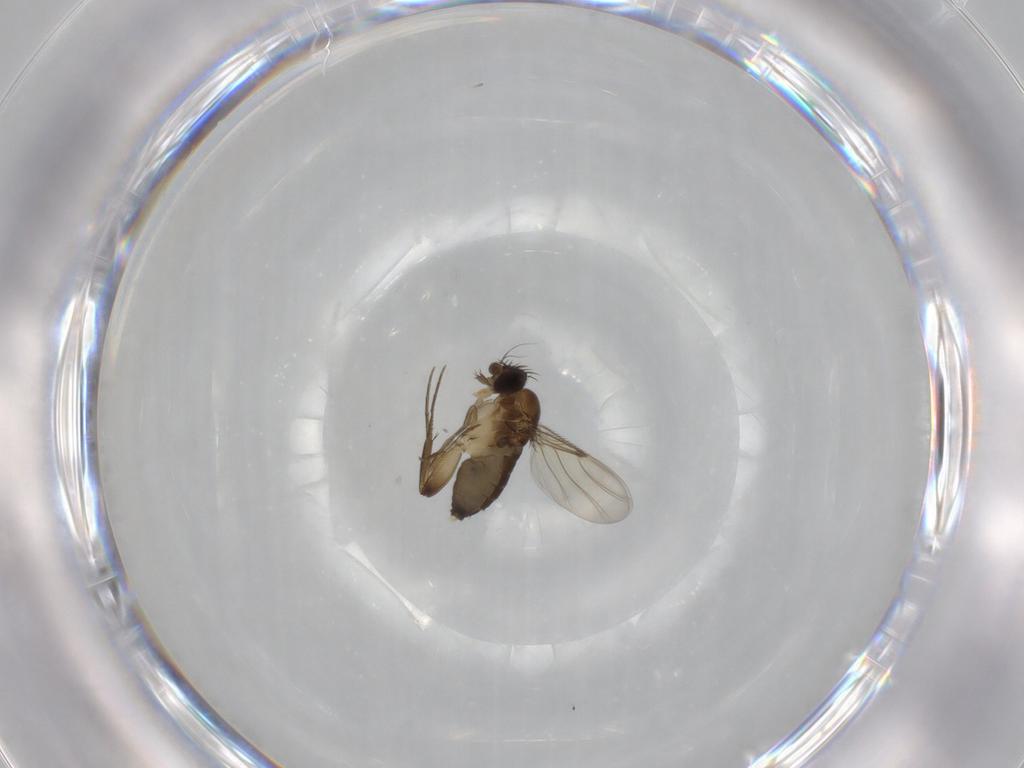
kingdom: Animalia
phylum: Arthropoda
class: Insecta
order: Diptera
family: Phoridae
